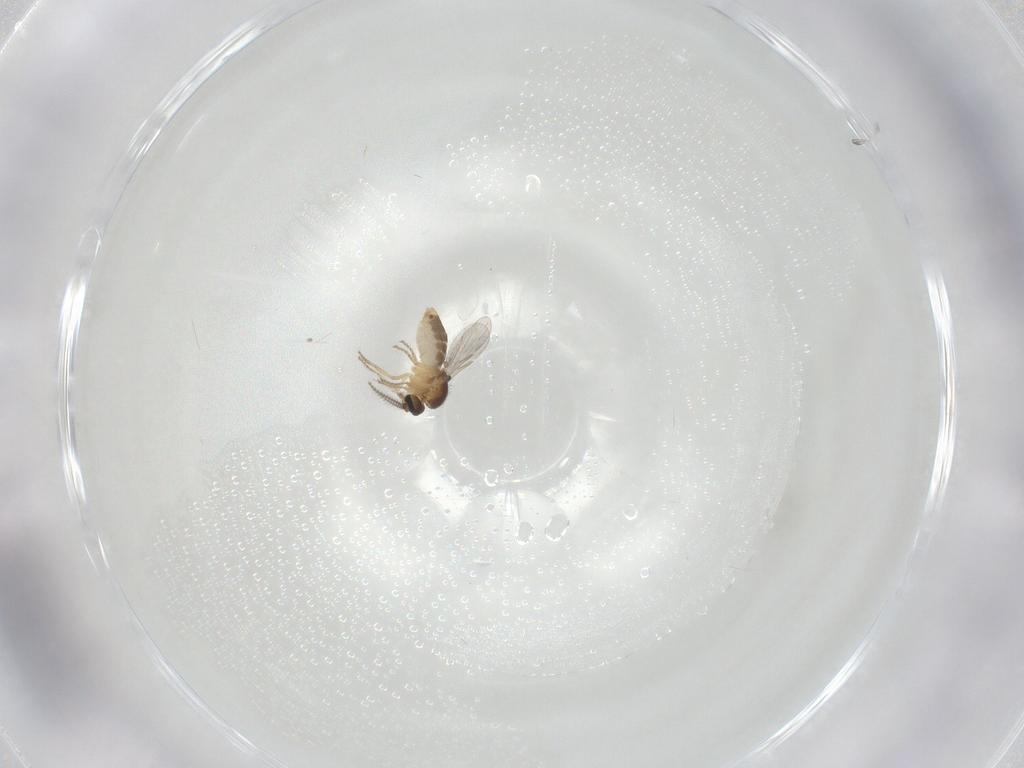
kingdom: Animalia
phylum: Arthropoda
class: Insecta
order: Diptera
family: Ceratopogonidae
